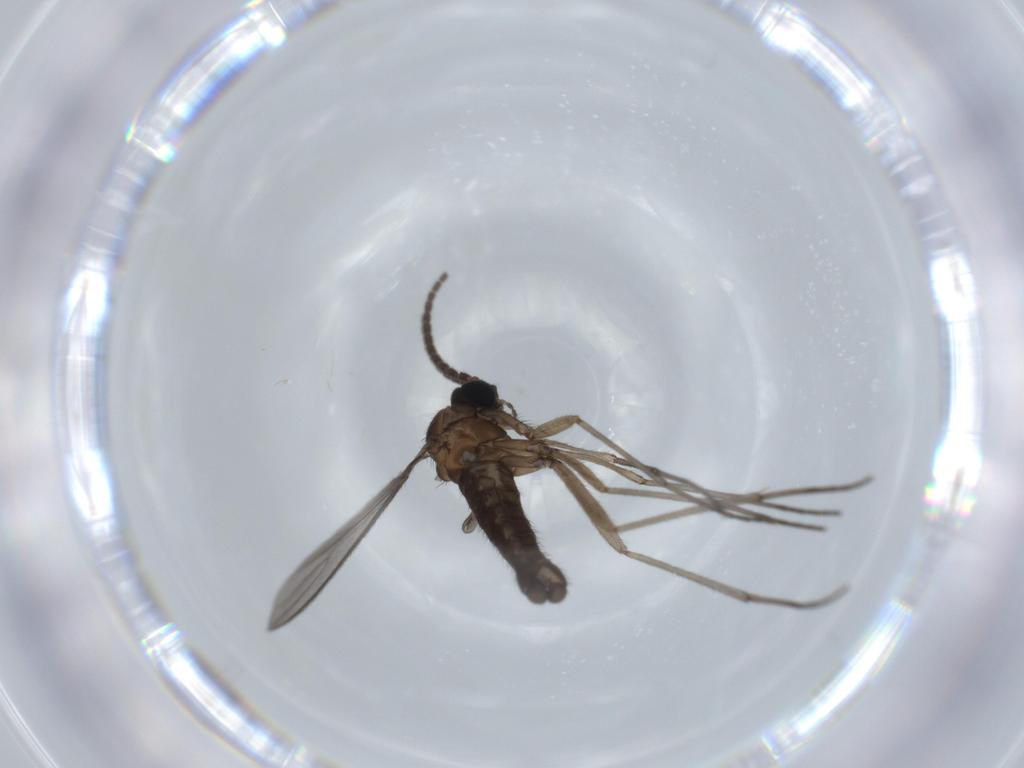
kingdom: Animalia
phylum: Arthropoda
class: Insecta
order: Diptera
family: Sciaridae
